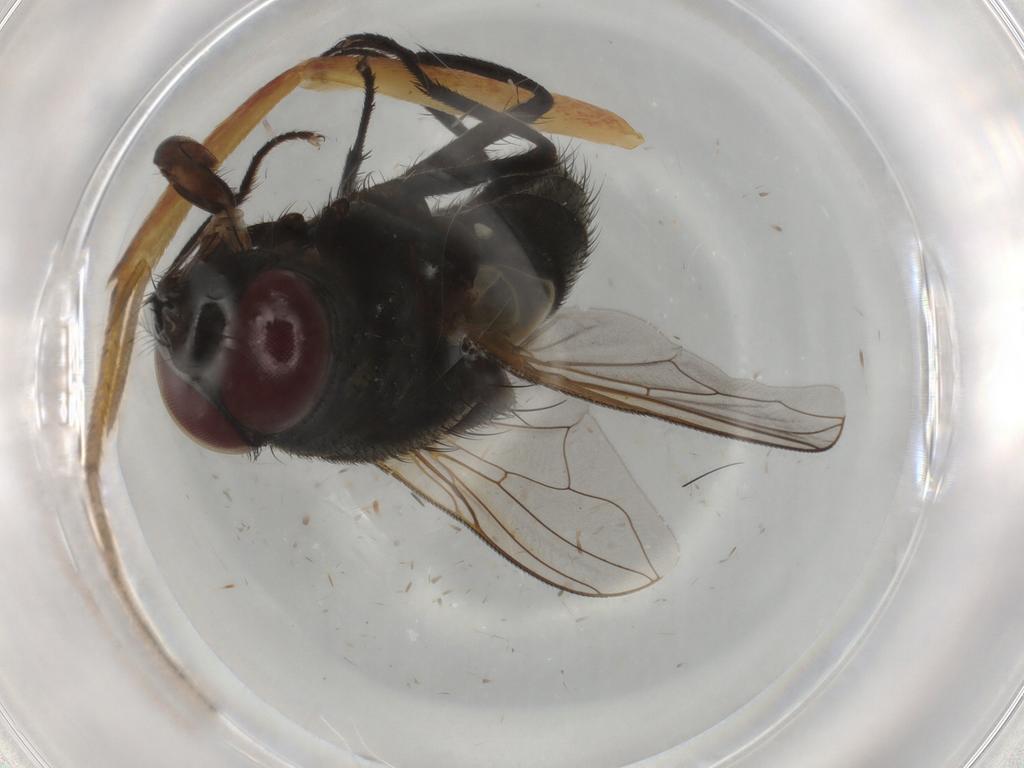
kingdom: Animalia
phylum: Arthropoda
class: Insecta
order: Diptera
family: Muscidae
